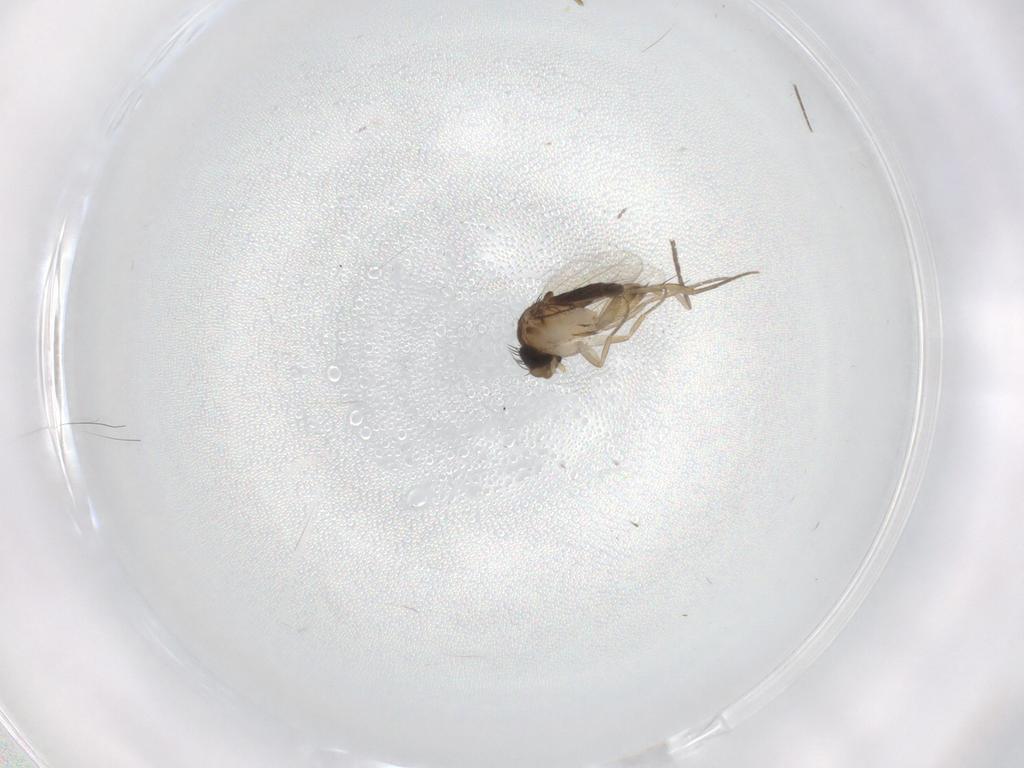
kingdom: Animalia
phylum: Arthropoda
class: Insecta
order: Diptera
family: Phoridae
